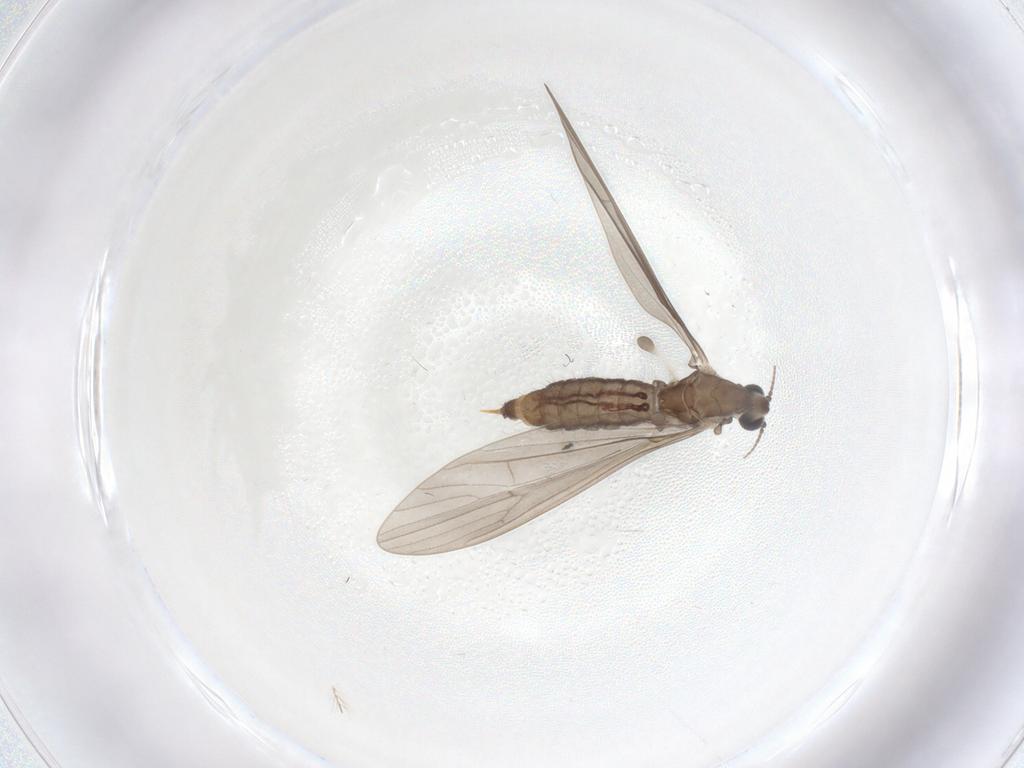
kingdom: Animalia
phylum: Arthropoda
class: Insecta
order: Diptera
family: Limoniidae
